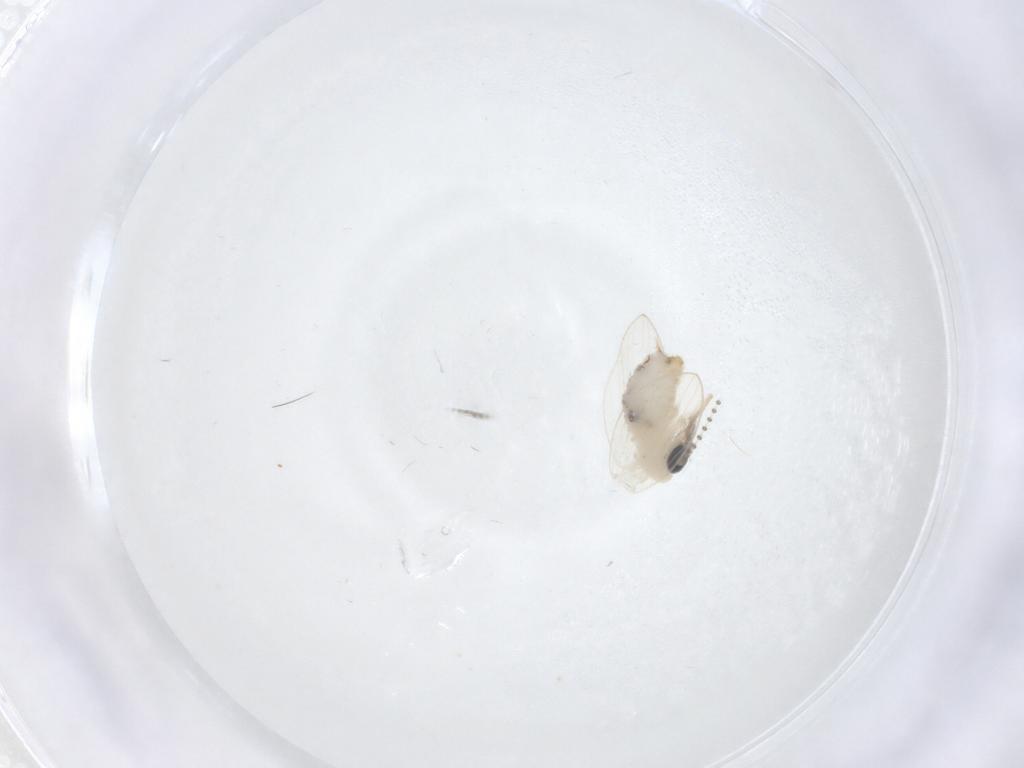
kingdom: Animalia
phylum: Arthropoda
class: Insecta
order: Diptera
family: Psychodidae
